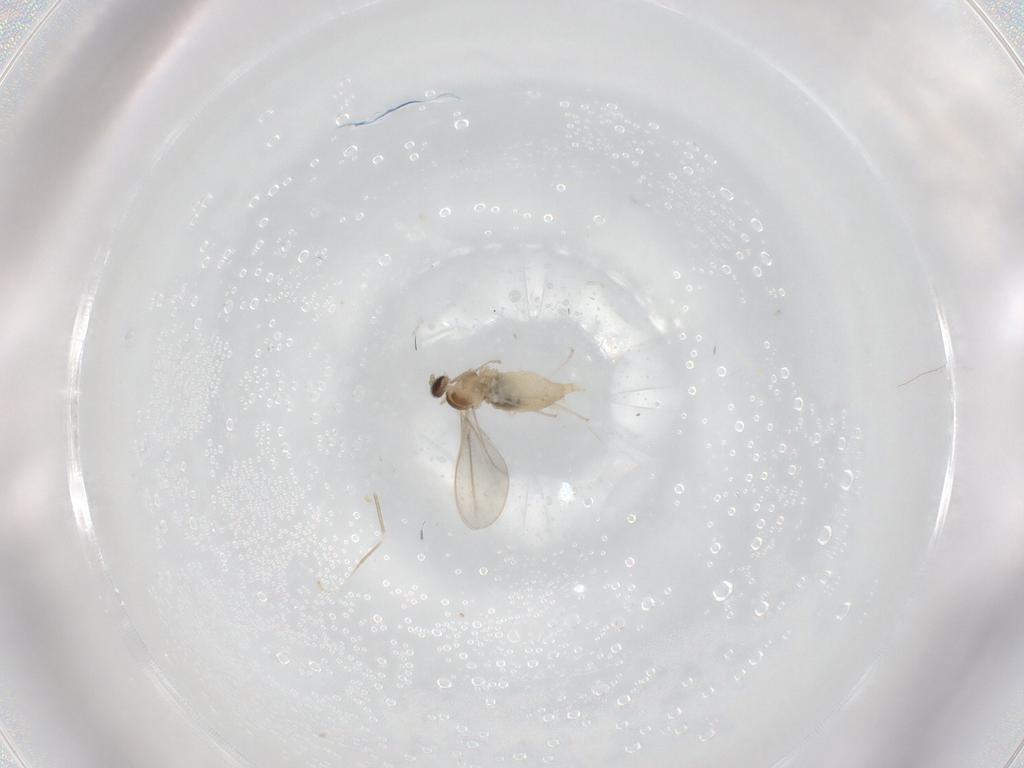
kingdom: Animalia
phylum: Arthropoda
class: Insecta
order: Diptera
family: Cecidomyiidae
